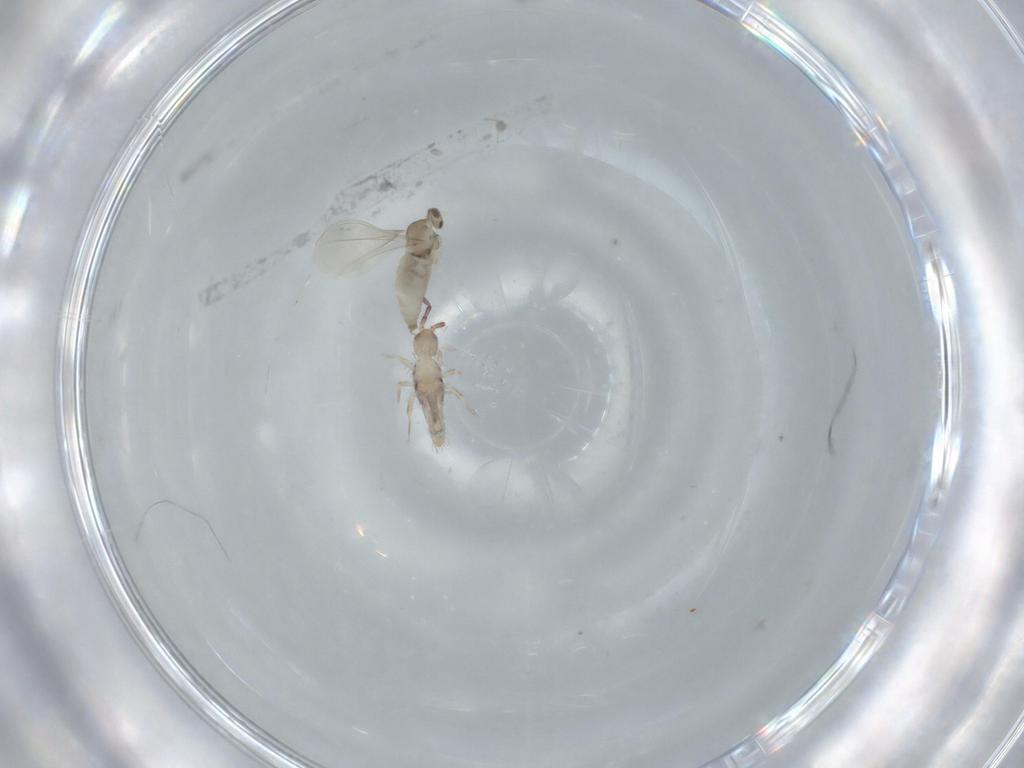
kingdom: Animalia
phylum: Arthropoda
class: Collembola
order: Entomobryomorpha
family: Entomobryidae
